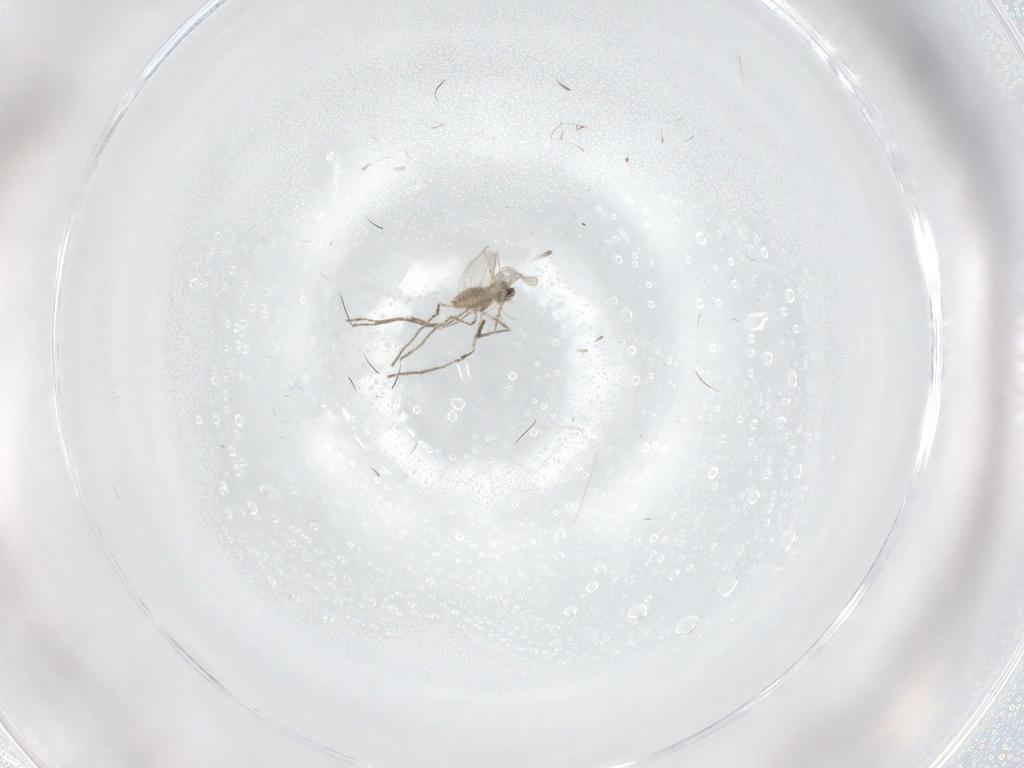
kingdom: Animalia
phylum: Arthropoda
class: Insecta
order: Diptera
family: Cecidomyiidae
